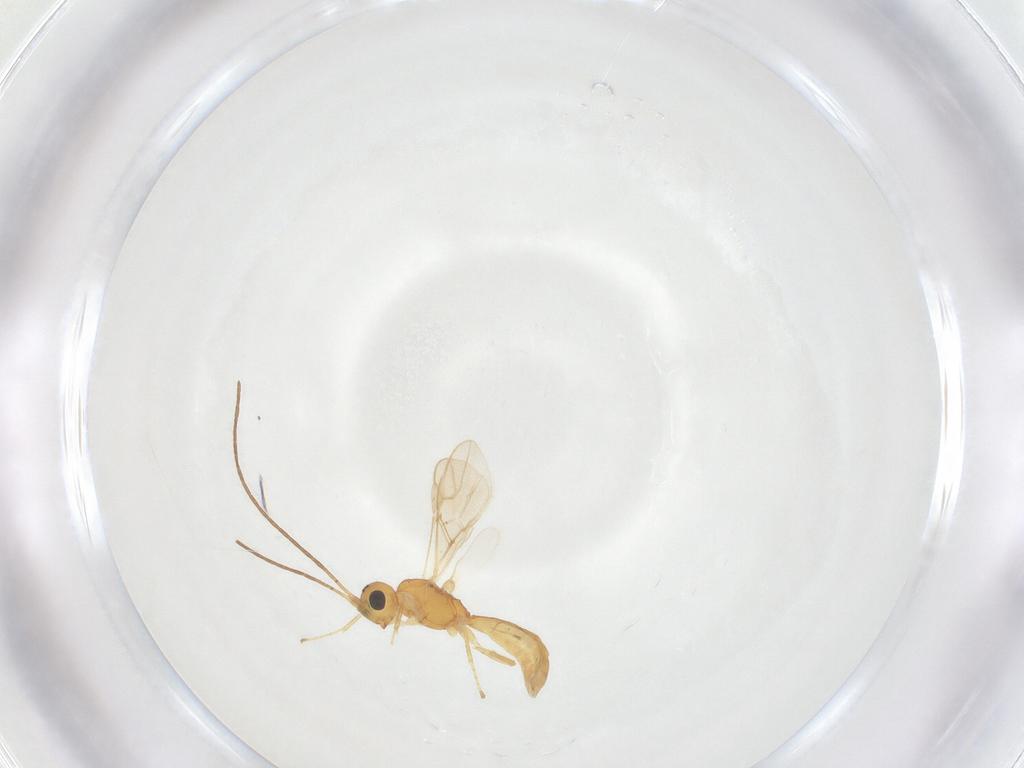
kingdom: Animalia
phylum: Arthropoda
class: Insecta
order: Hymenoptera
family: Braconidae
